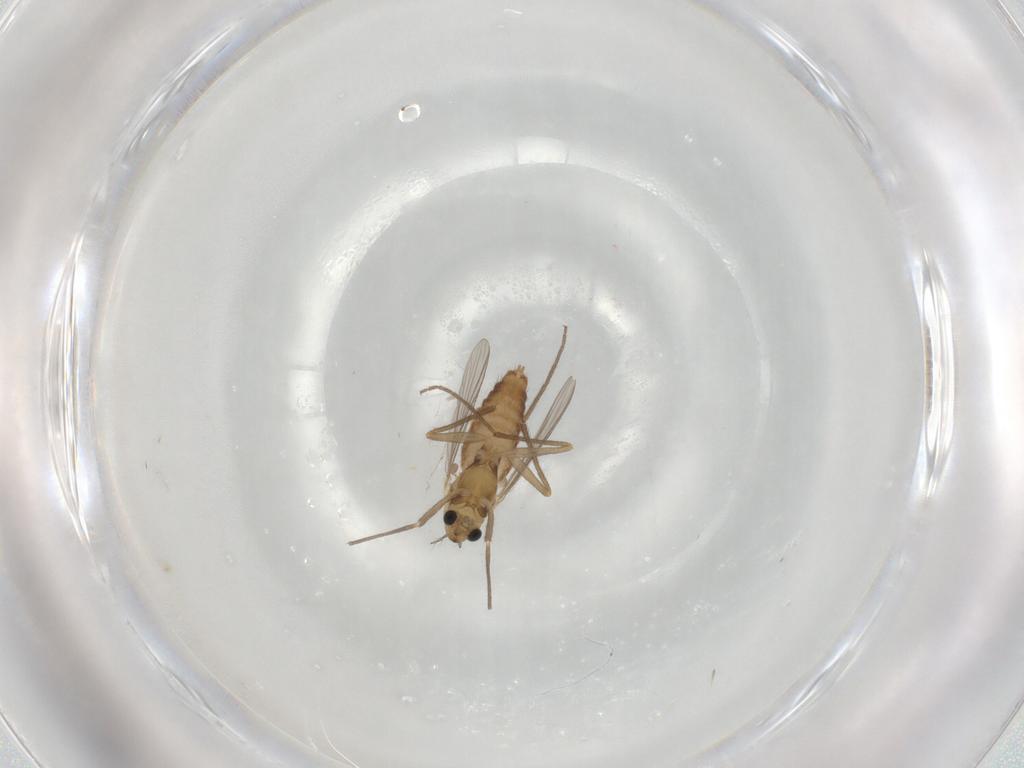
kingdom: Animalia
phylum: Arthropoda
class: Insecta
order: Diptera
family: Chironomidae
